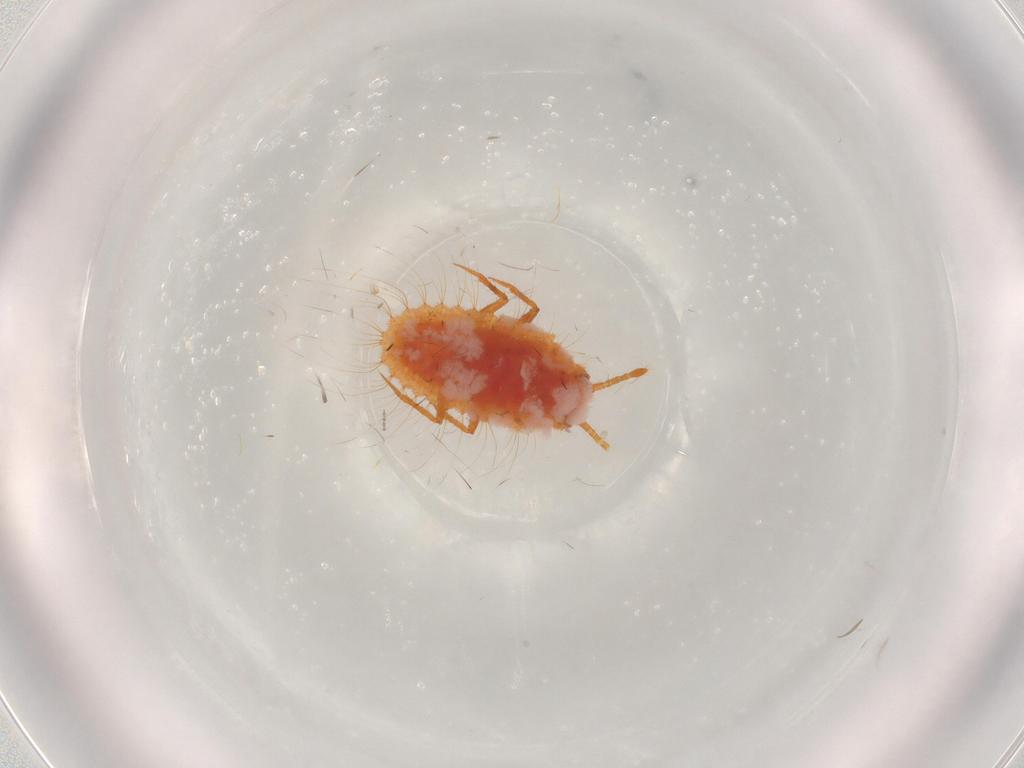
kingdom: Animalia
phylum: Arthropoda
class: Insecta
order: Hemiptera
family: Coccoidea_incertae_sedis
